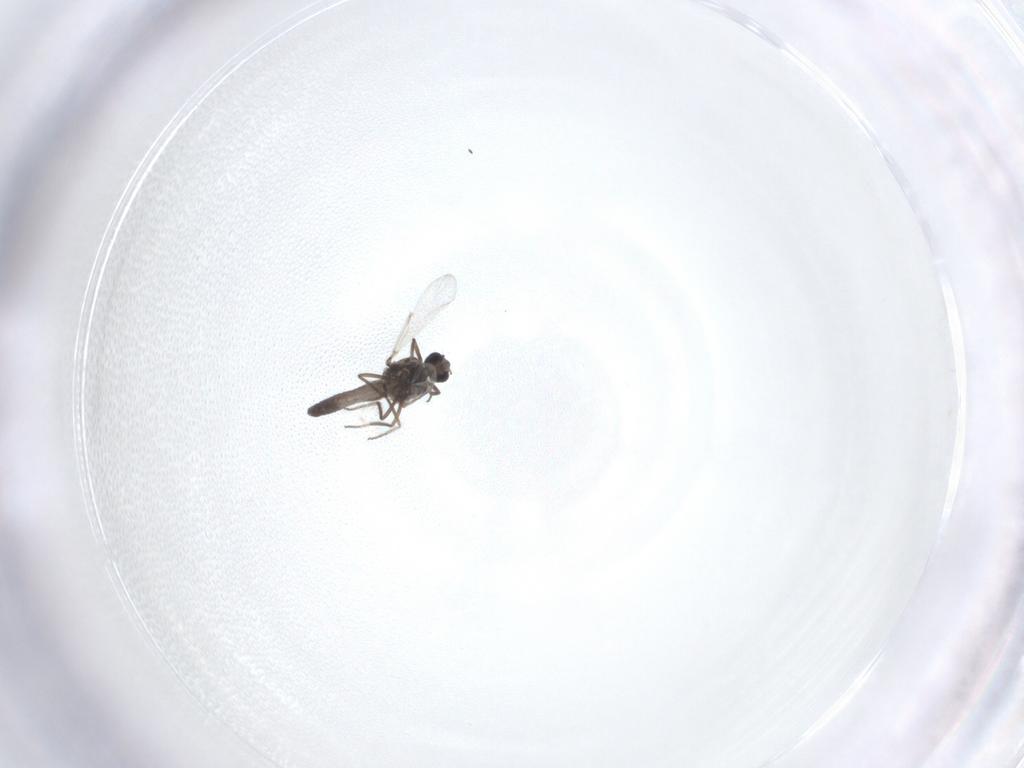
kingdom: Animalia
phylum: Arthropoda
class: Insecta
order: Diptera
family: Ceratopogonidae
